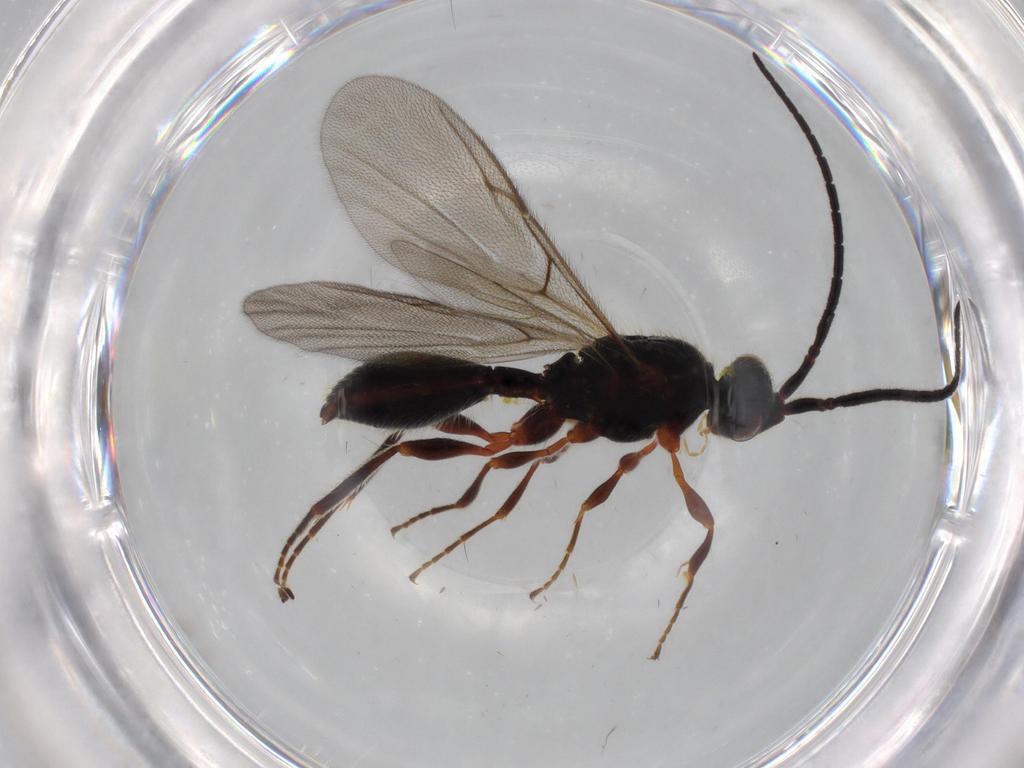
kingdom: Animalia
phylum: Arthropoda
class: Insecta
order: Hymenoptera
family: Diapriidae
